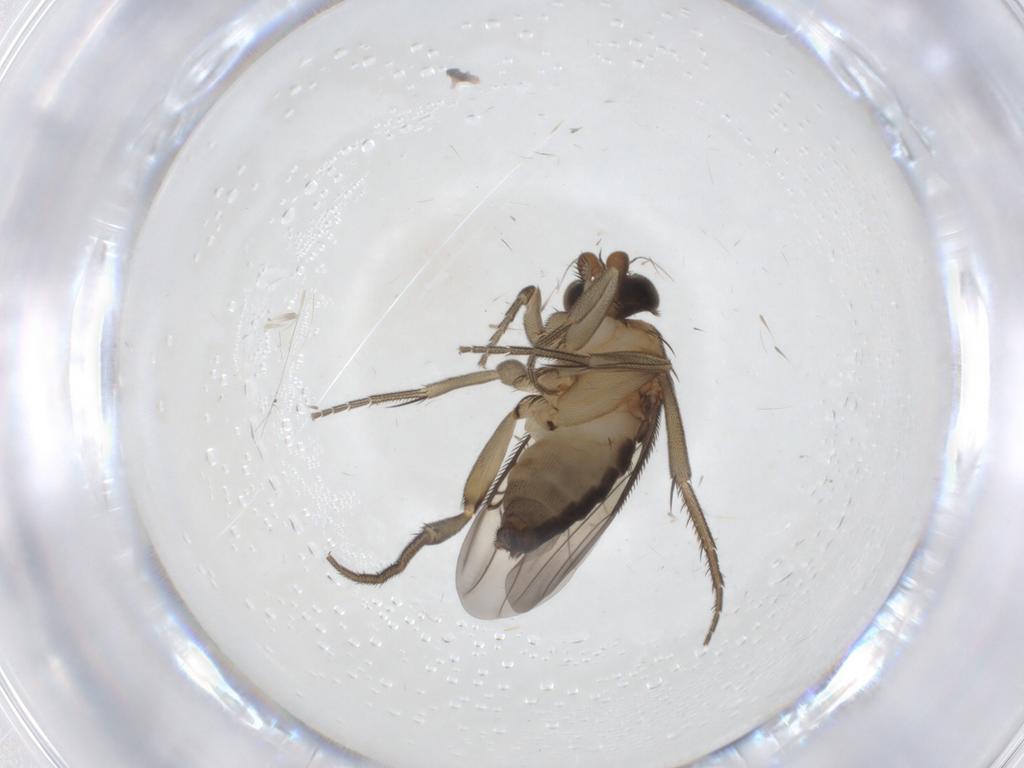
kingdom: Animalia
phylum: Arthropoda
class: Insecta
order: Diptera
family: Phoridae
